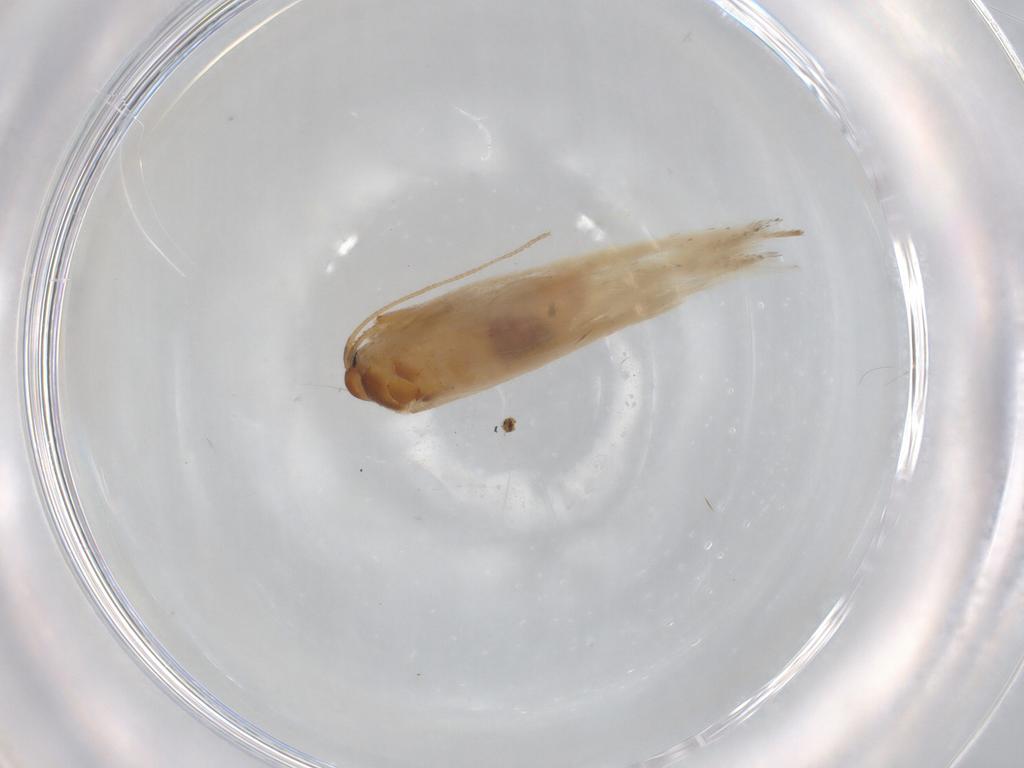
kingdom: Animalia
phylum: Arthropoda
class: Insecta
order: Lepidoptera
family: Gelechiidae
